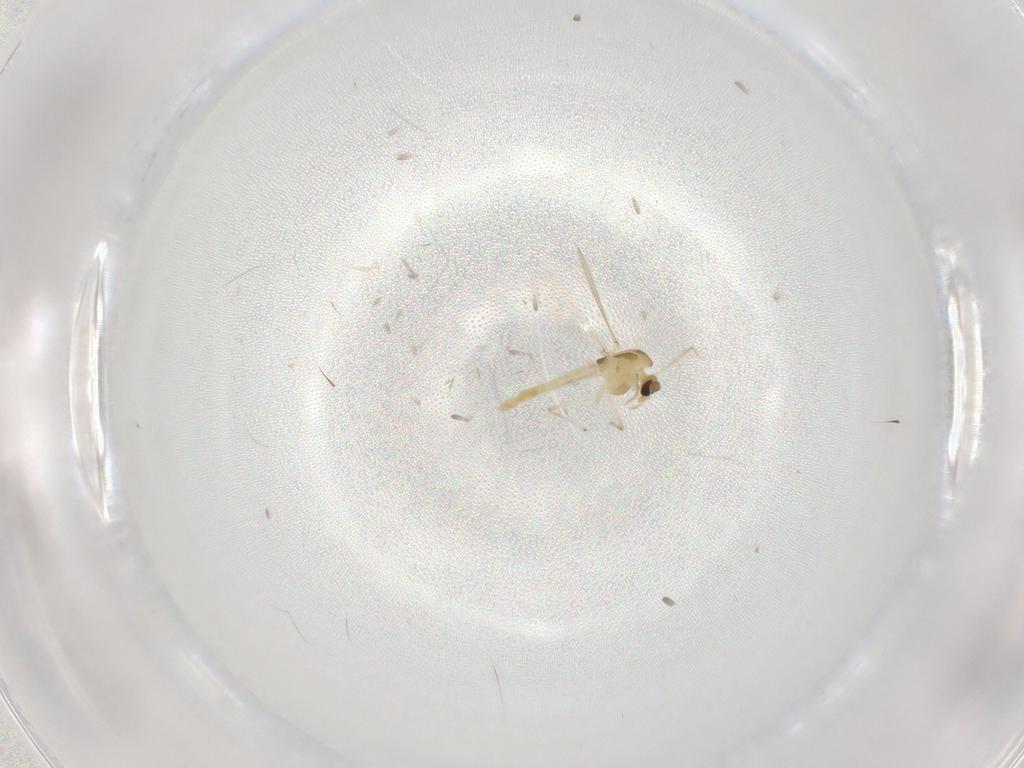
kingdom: Animalia
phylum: Arthropoda
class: Insecta
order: Diptera
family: Chironomidae
